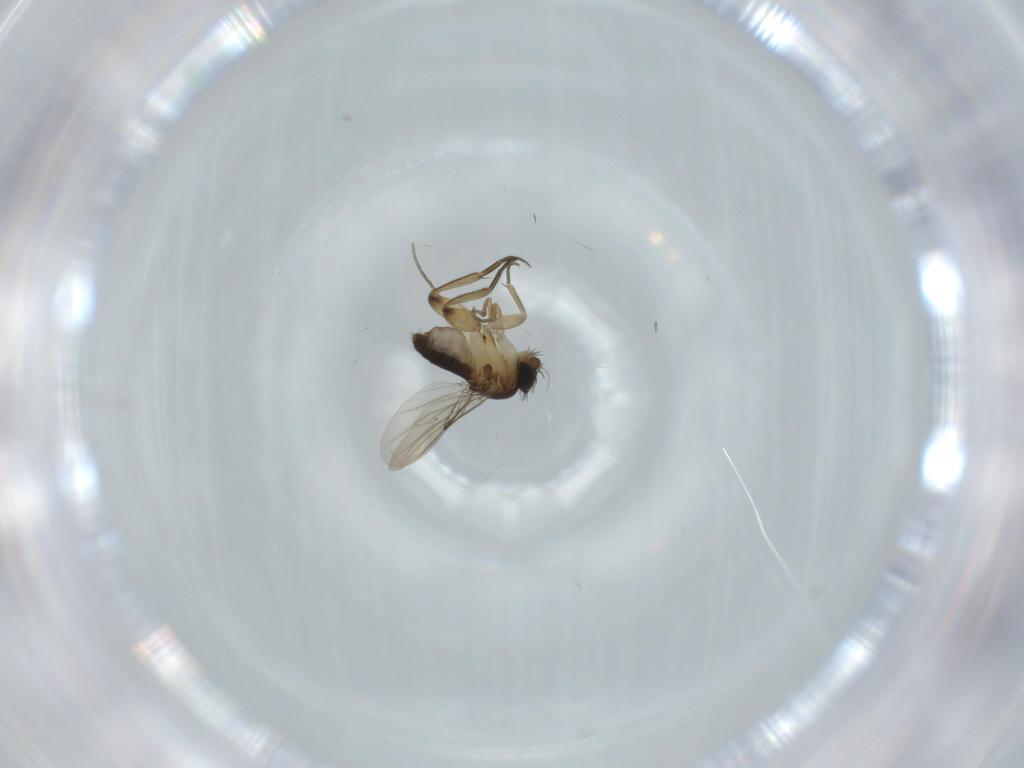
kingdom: Animalia
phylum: Arthropoda
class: Insecta
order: Diptera
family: Phoridae
